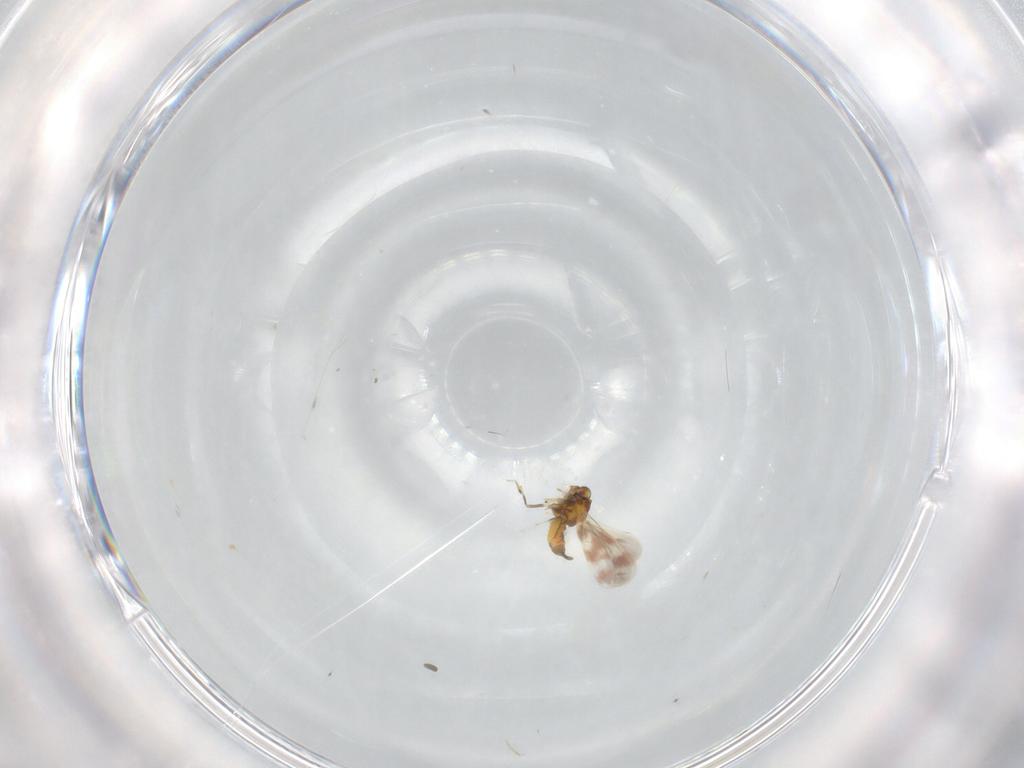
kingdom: Animalia
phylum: Arthropoda
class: Insecta
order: Hemiptera
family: Aleyrodidae
